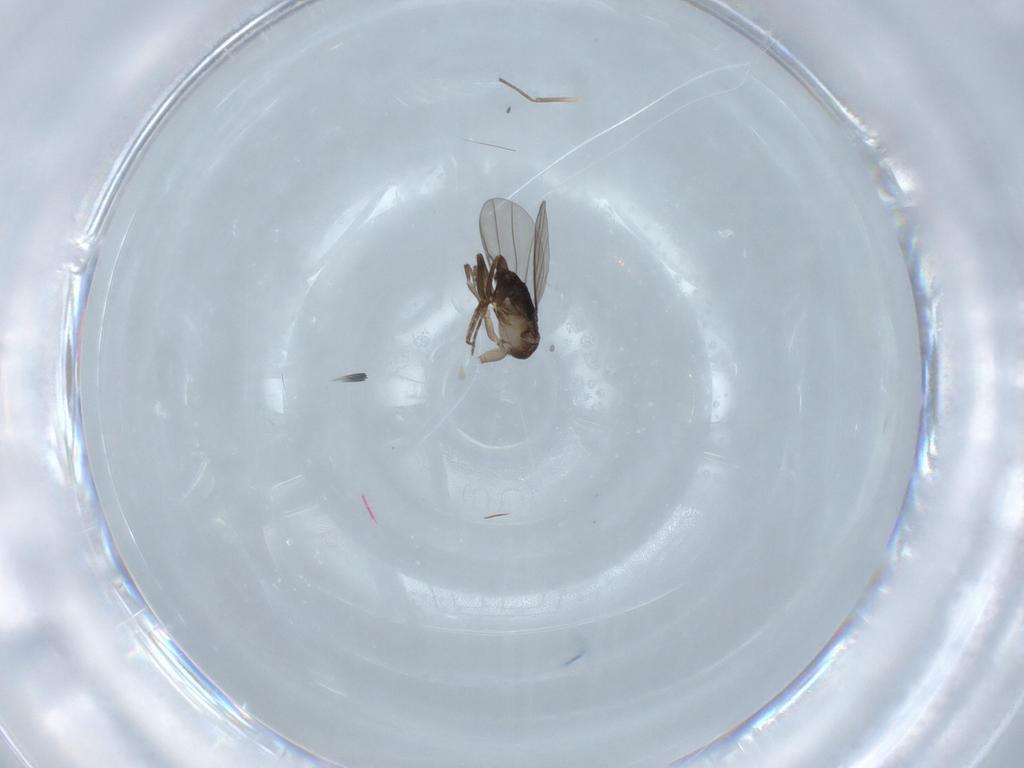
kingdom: Animalia
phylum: Arthropoda
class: Insecta
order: Diptera
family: Phoridae
